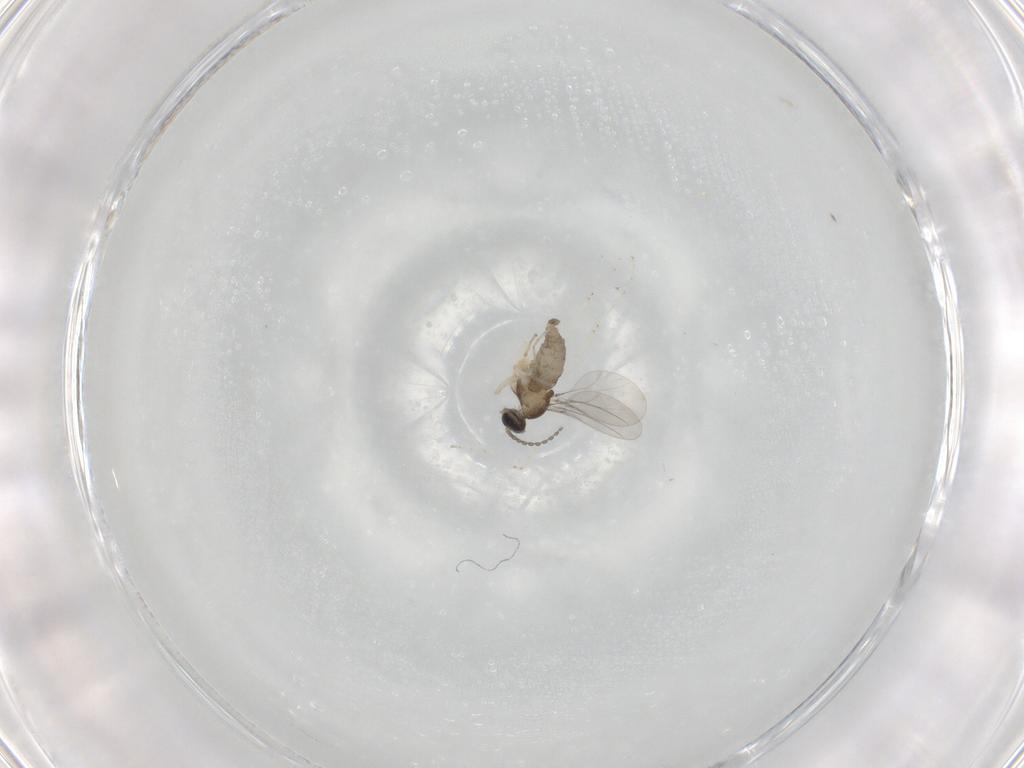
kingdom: Animalia
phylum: Arthropoda
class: Insecta
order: Diptera
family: Cecidomyiidae
